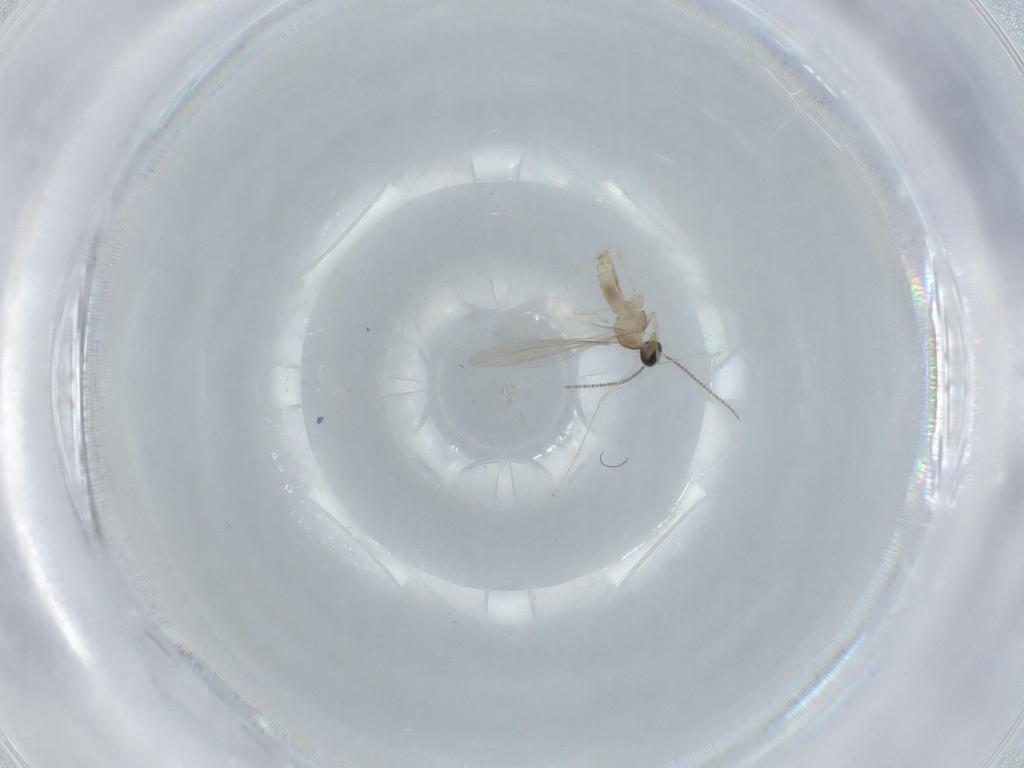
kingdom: Animalia
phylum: Arthropoda
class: Insecta
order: Diptera
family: Cecidomyiidae
